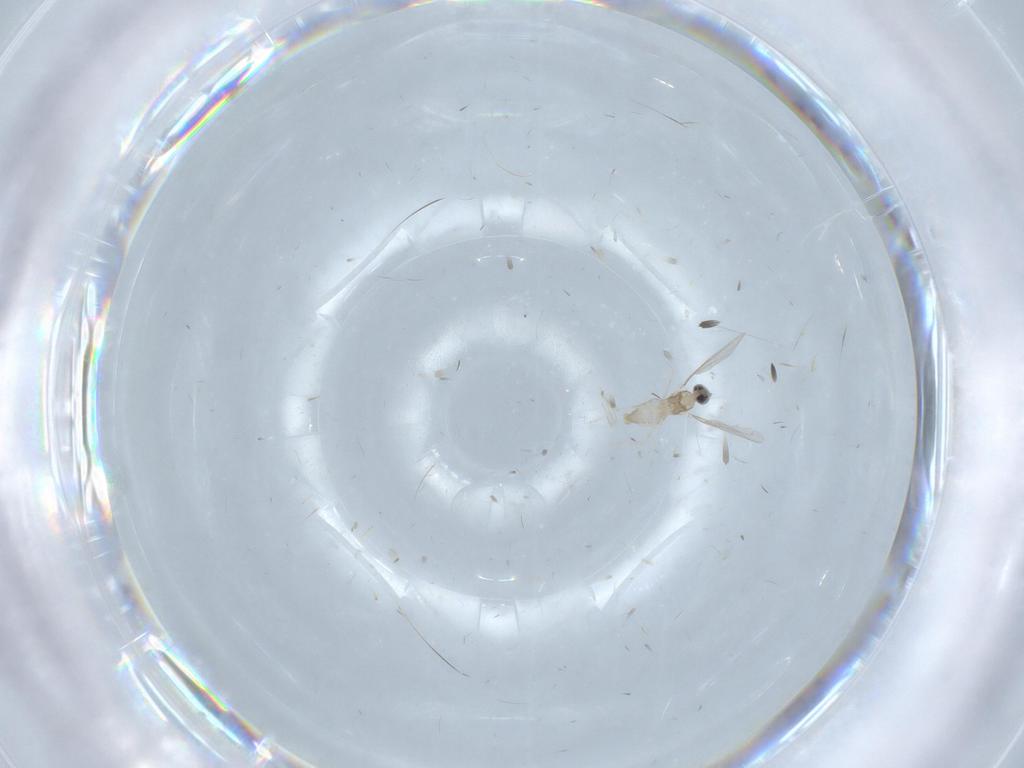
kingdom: Animalia
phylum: Arthropoda
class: Insecta
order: Diptera
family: Cecidomyiidae
